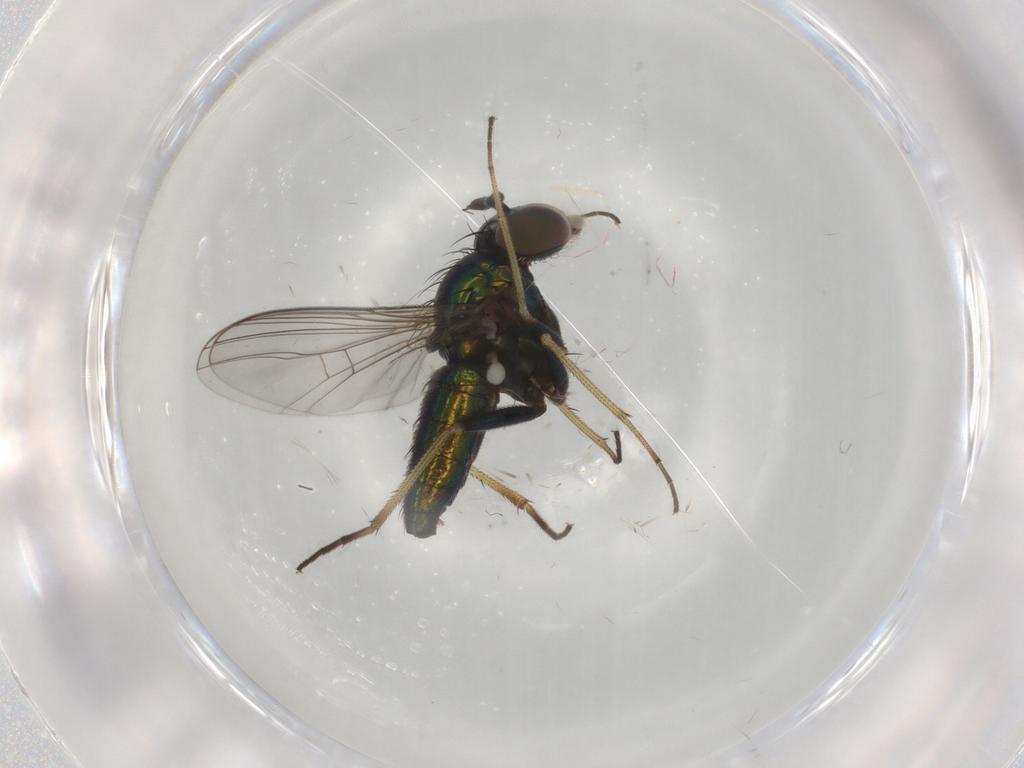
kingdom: Animalia
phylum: Arthropoda
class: Insecta
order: Diptera
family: Dolichopodidae
